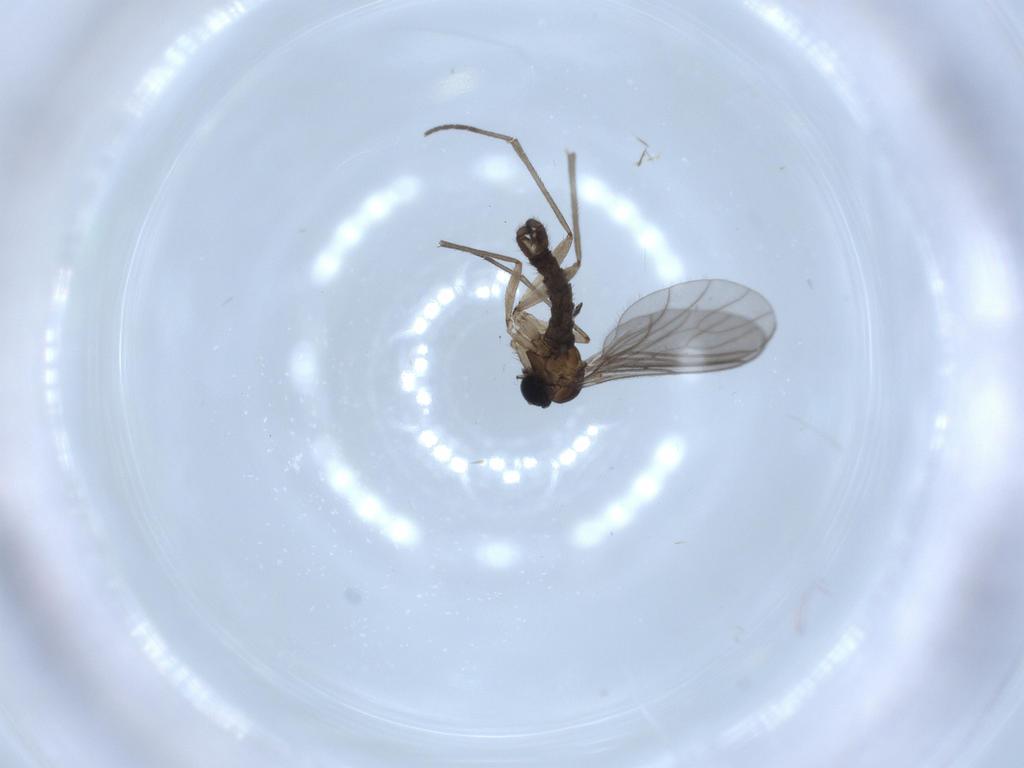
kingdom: Animalia
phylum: Arthropoda
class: Insecta
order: Diptera
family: Sciaridae
